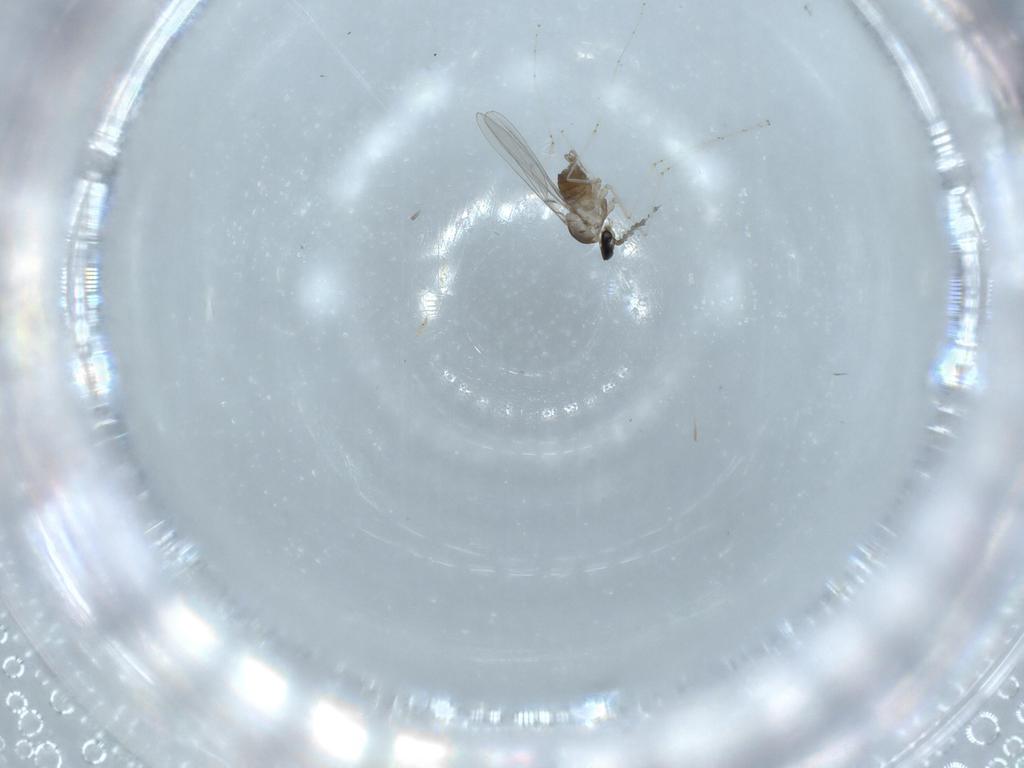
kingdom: Animalia
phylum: Arthropoda
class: Insecta
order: Diptera
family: Cecidomyiidae
